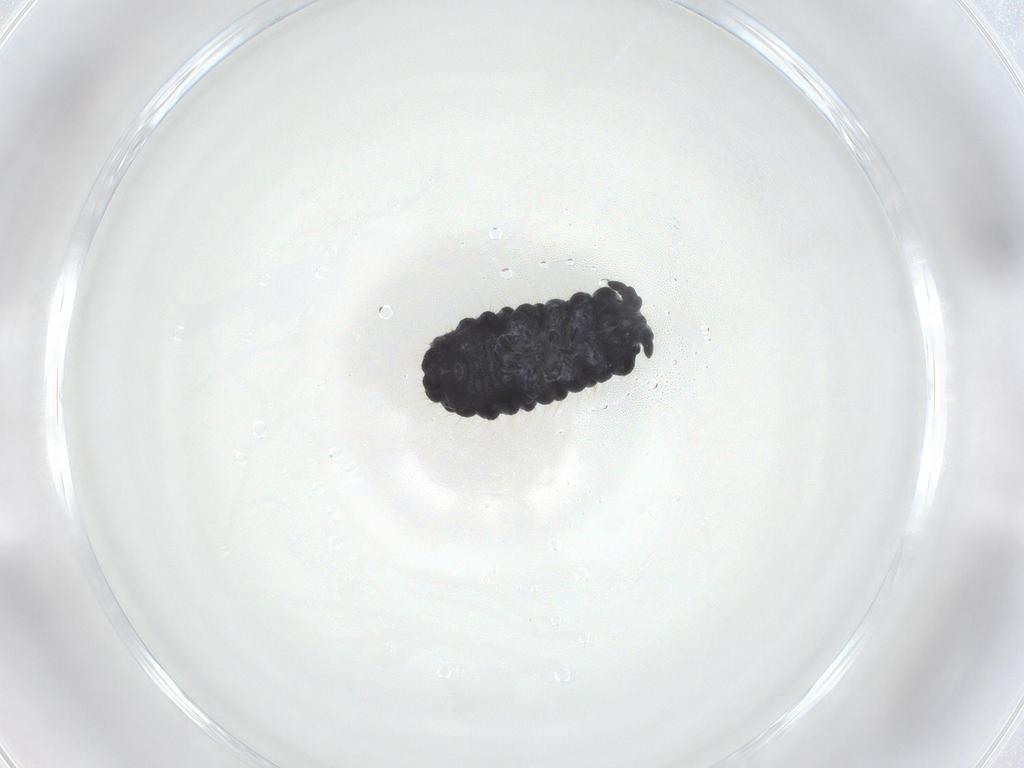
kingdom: Animalia
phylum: Arthropoda
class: Collembola
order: Poduromorpha
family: Neanuridae
